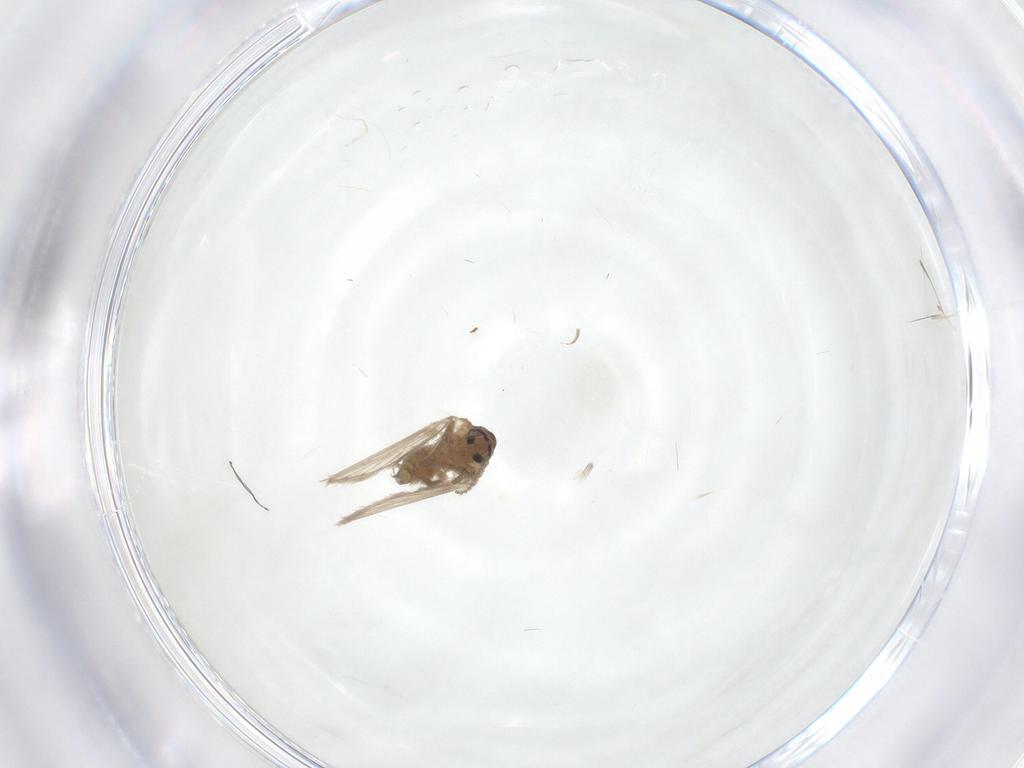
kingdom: Animalia
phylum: Arthropoda
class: Insecta
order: Diptera
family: Psychodidae
